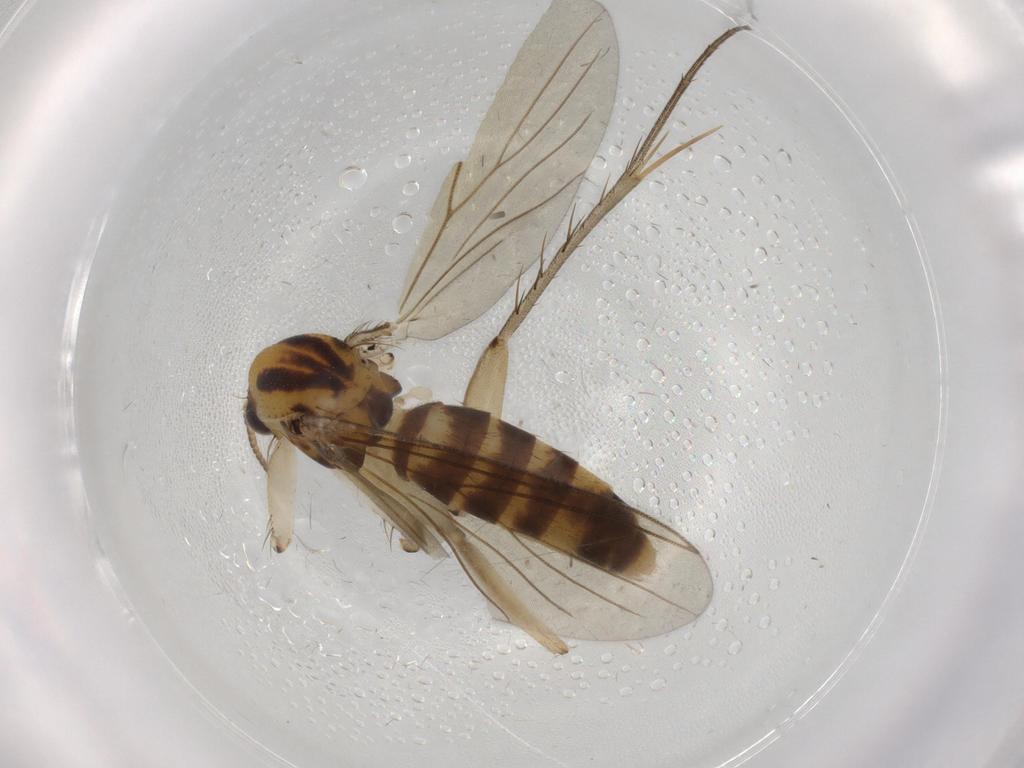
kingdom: Animalia
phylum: Arthropoda
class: Insecta
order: Diptera
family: Mycetophilidae
